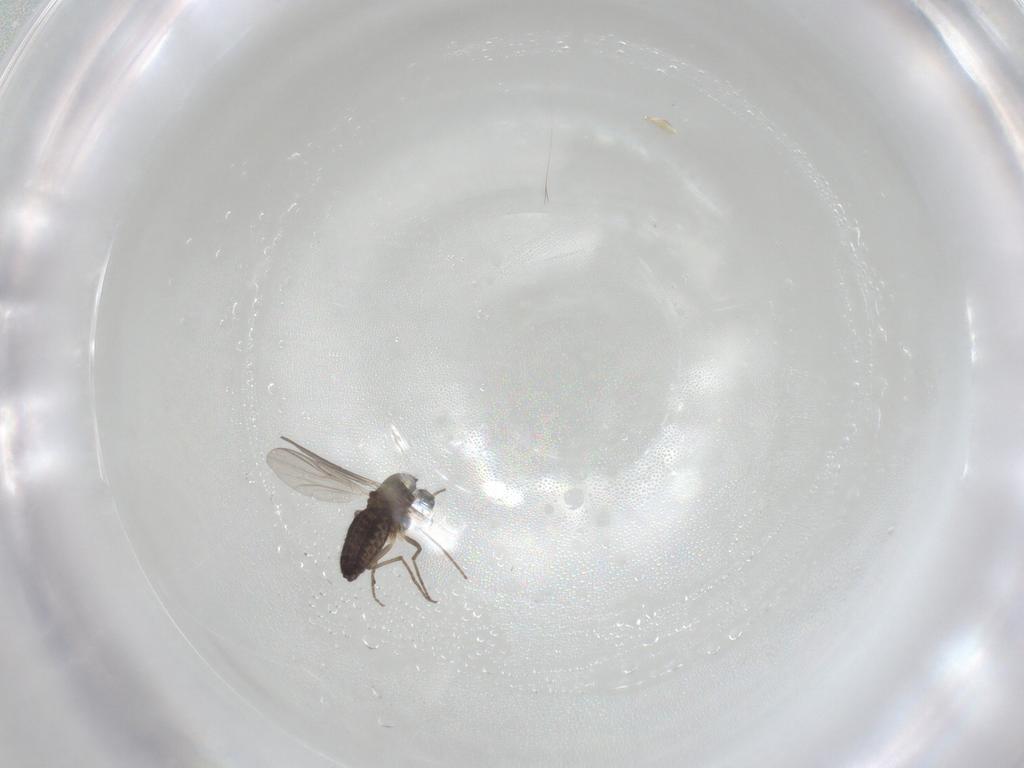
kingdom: Animalia
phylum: Arthropoda
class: Insecta
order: Diptera
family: Chironomidae
